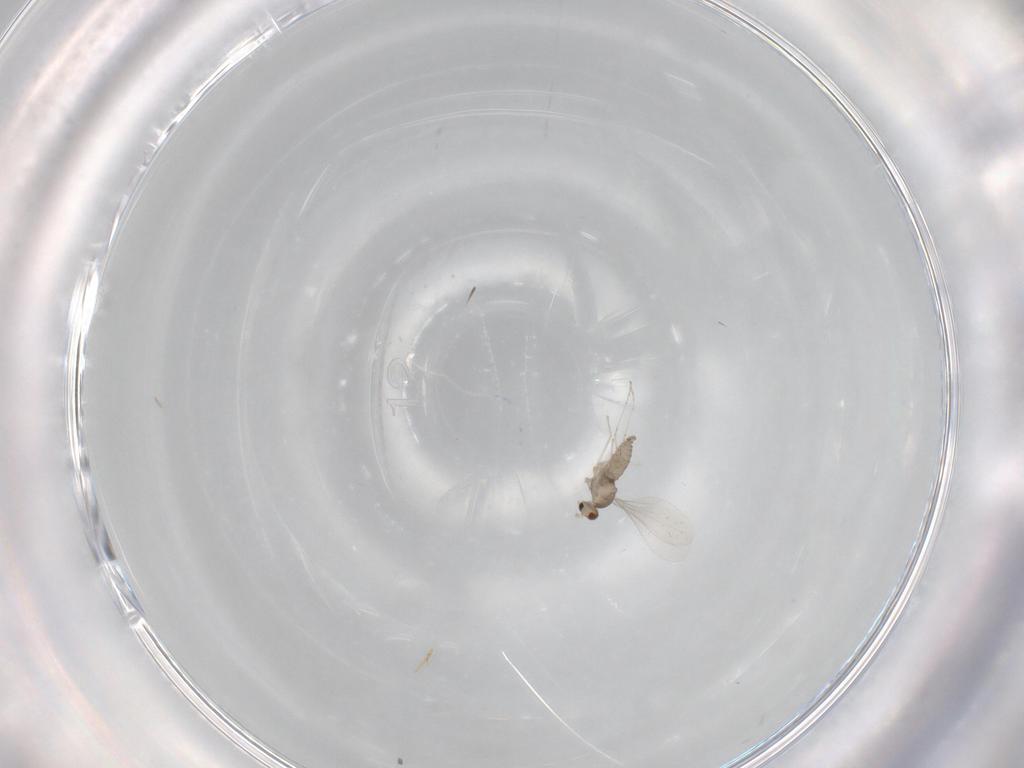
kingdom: Animalia
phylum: Arthropoda
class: Insecta
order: Diptera
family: Cecidomyiidae
